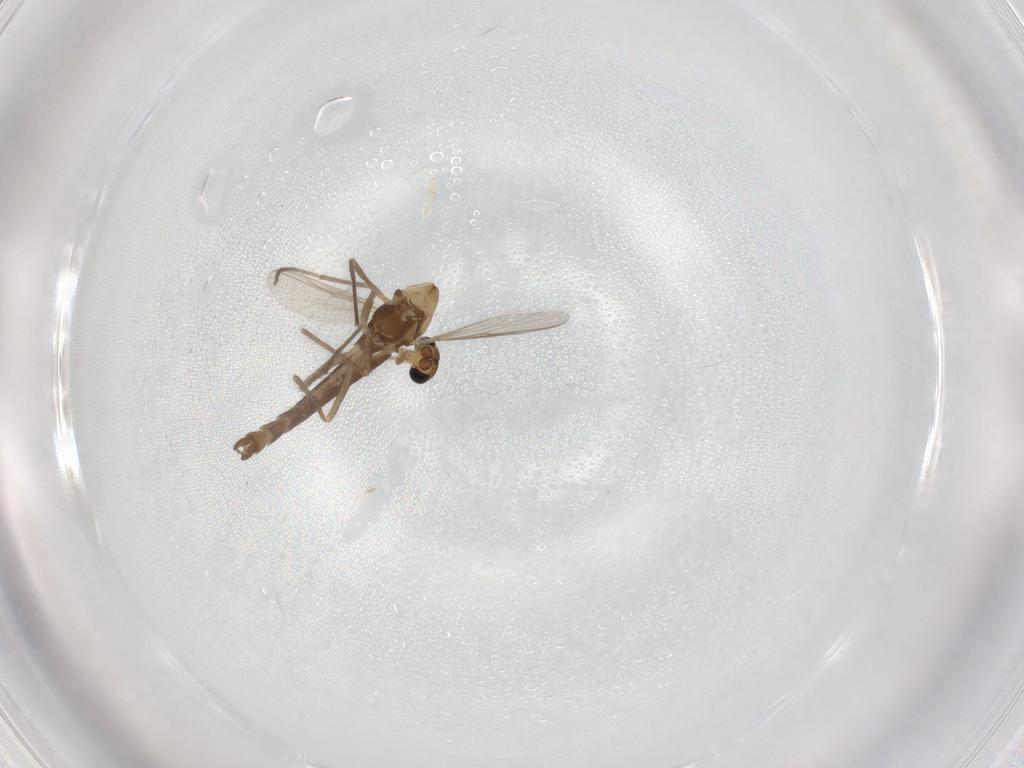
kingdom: Animalia
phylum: Arthropoda
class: Insecta
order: Diptera
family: Chironomidae
